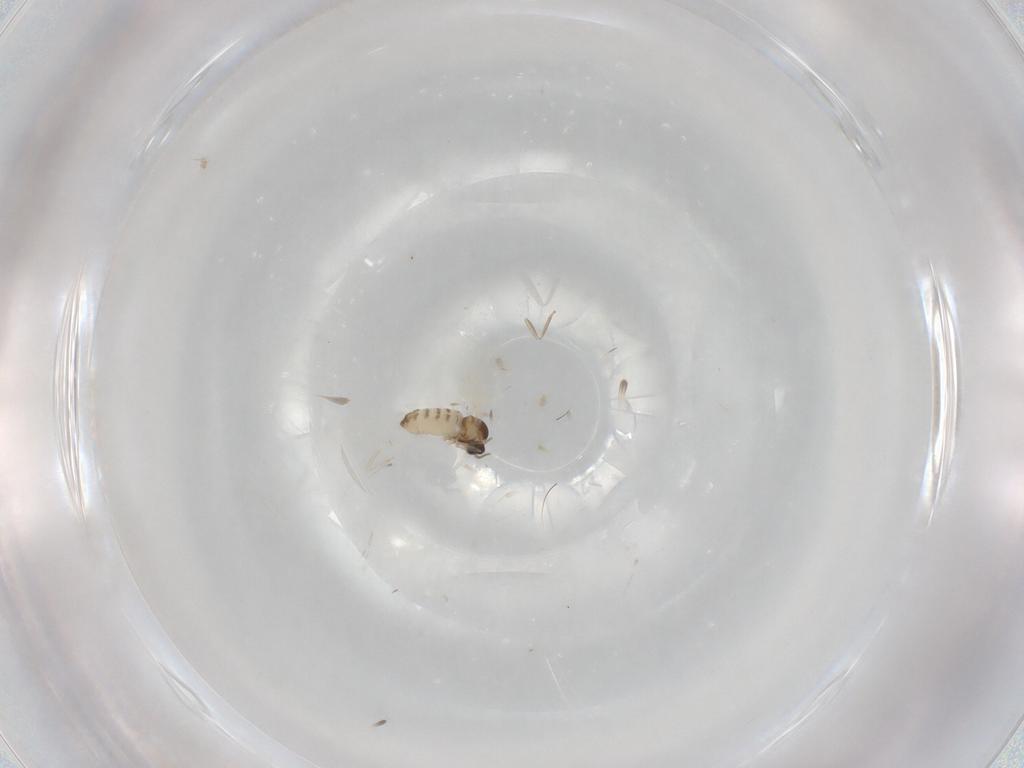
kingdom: Animalia
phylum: Arthropoda
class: Insecta
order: Diptera
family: Cecidomyiidae
